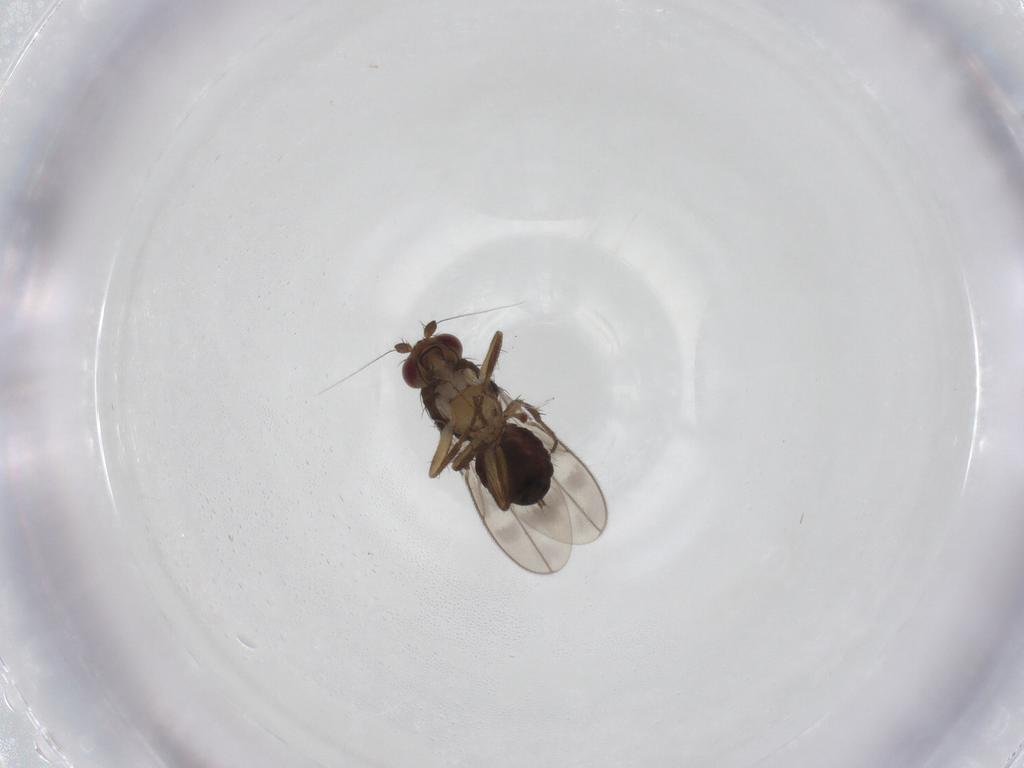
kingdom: Animalia
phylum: Arthropoda
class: Insecta
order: Diptera
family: Sphaeroceridae
